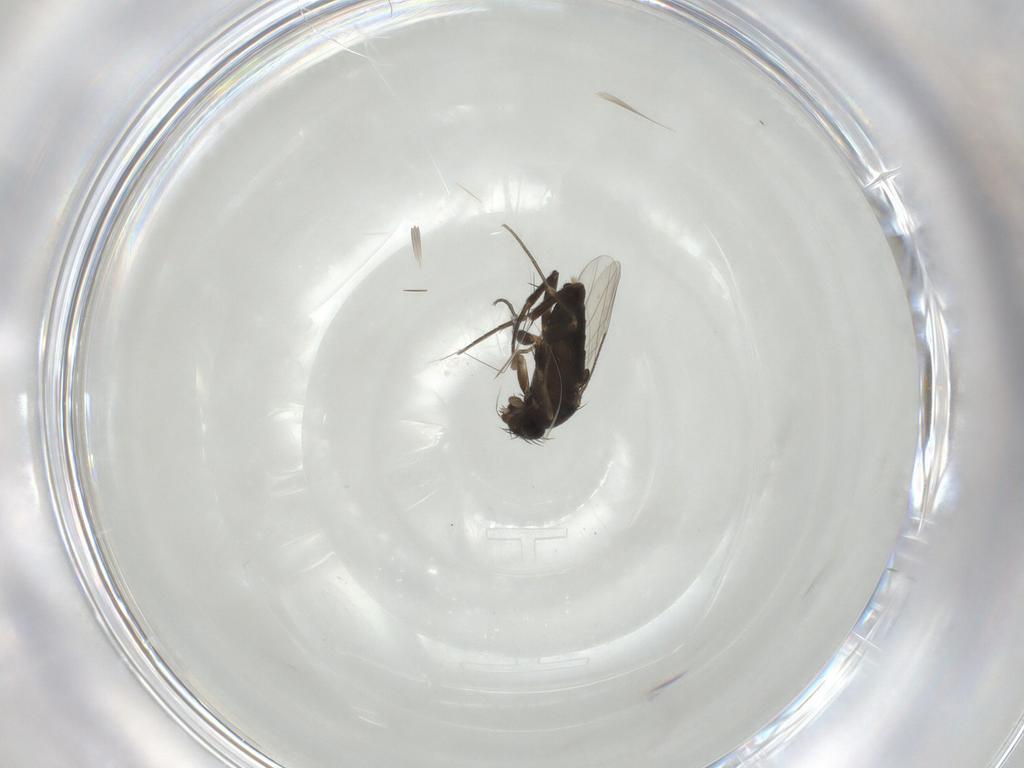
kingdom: Animalia
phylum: Arthropoda
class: Insecta
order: Diptera
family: Phoridae
